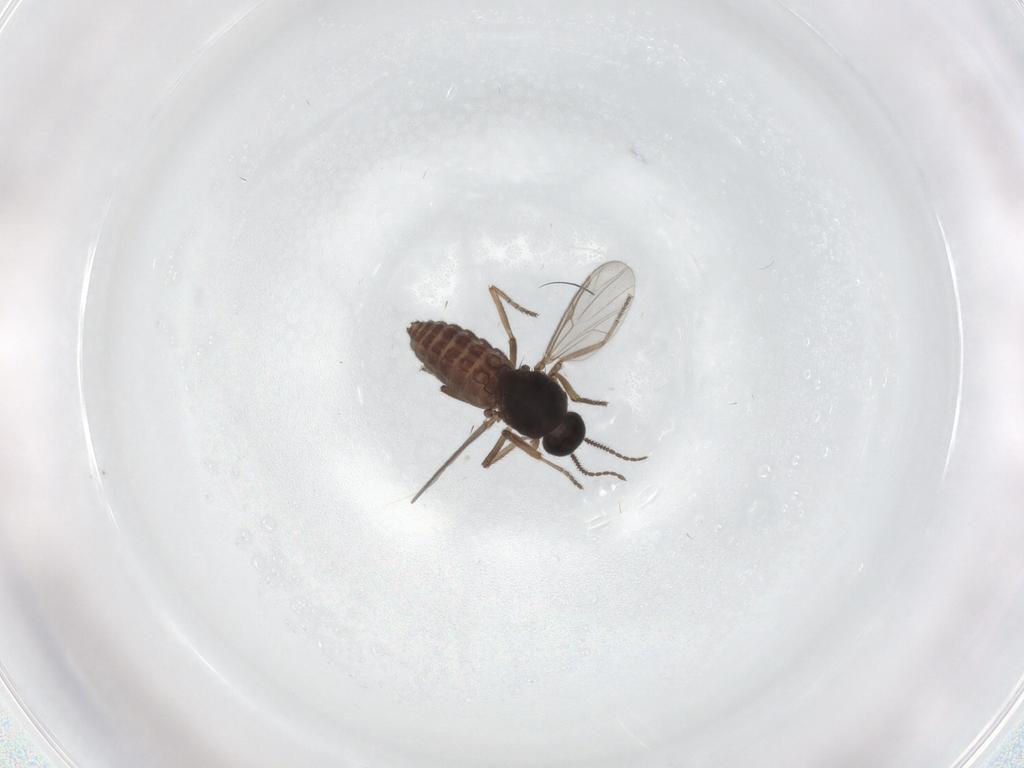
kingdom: Animalia
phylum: Arthropoda
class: Insecta
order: Diptera
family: Ceratopogonidae
